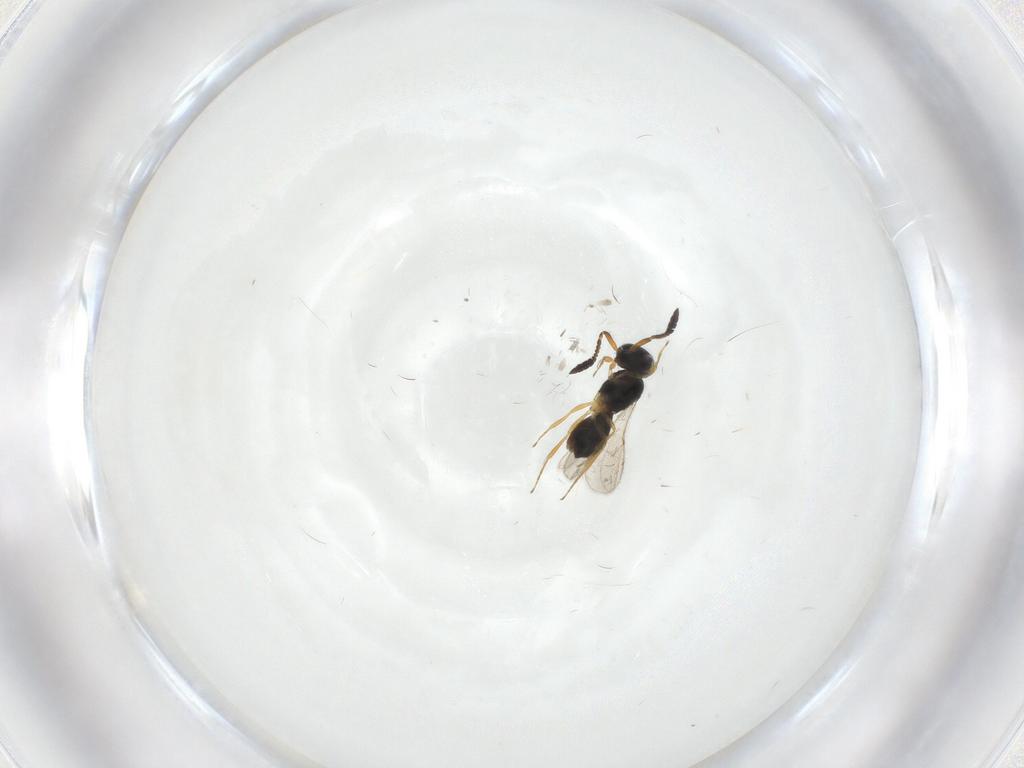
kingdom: Animalia
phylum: Arthropoda
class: Insecta
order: Hymenoptera
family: Scelionidae
